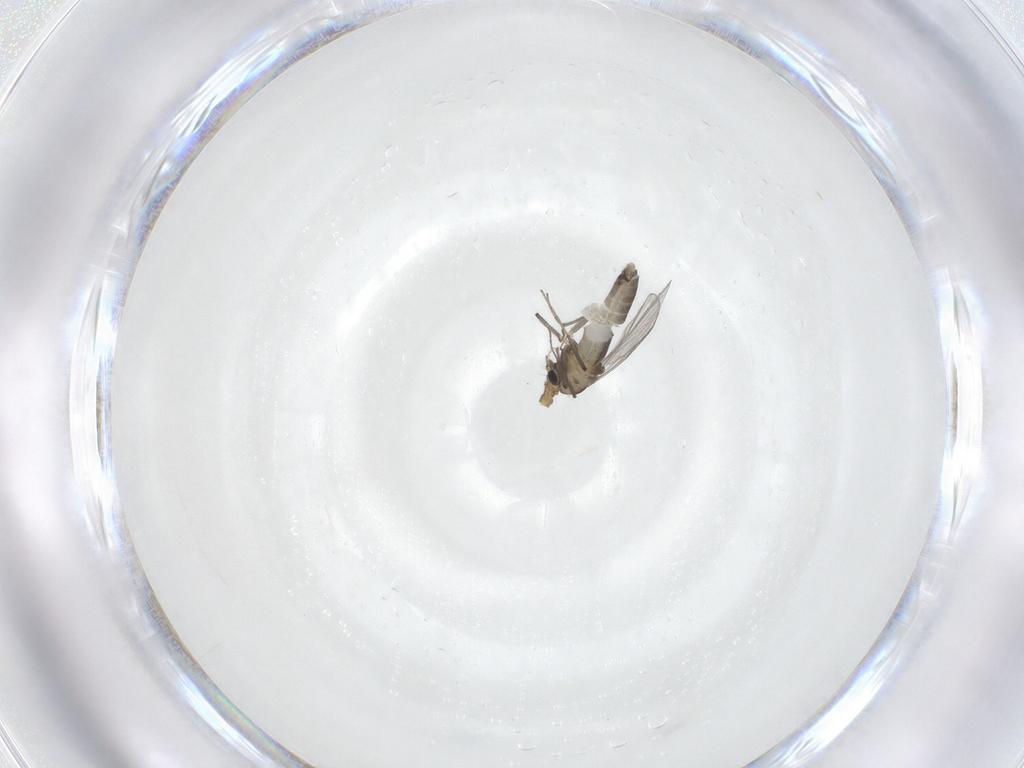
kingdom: Animalia
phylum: Arthropoda
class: Insecta
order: Diptera
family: Chironomidae
